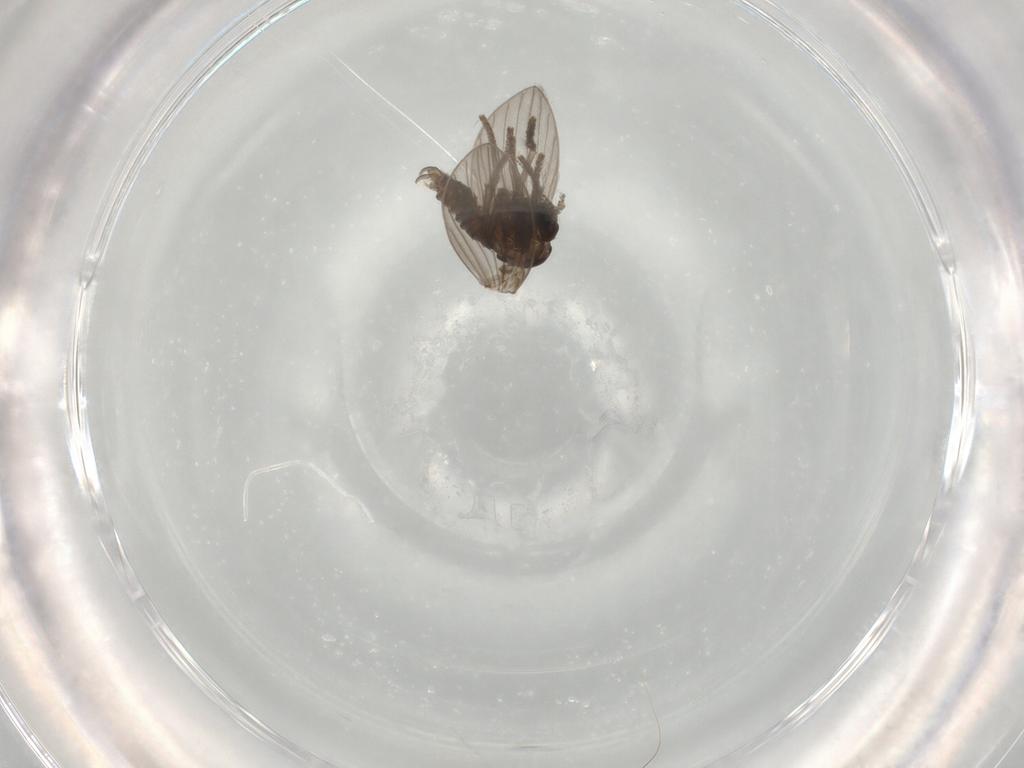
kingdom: Animalia
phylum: Arthropoda
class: Insecta
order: Diptera
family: Psychodidae
